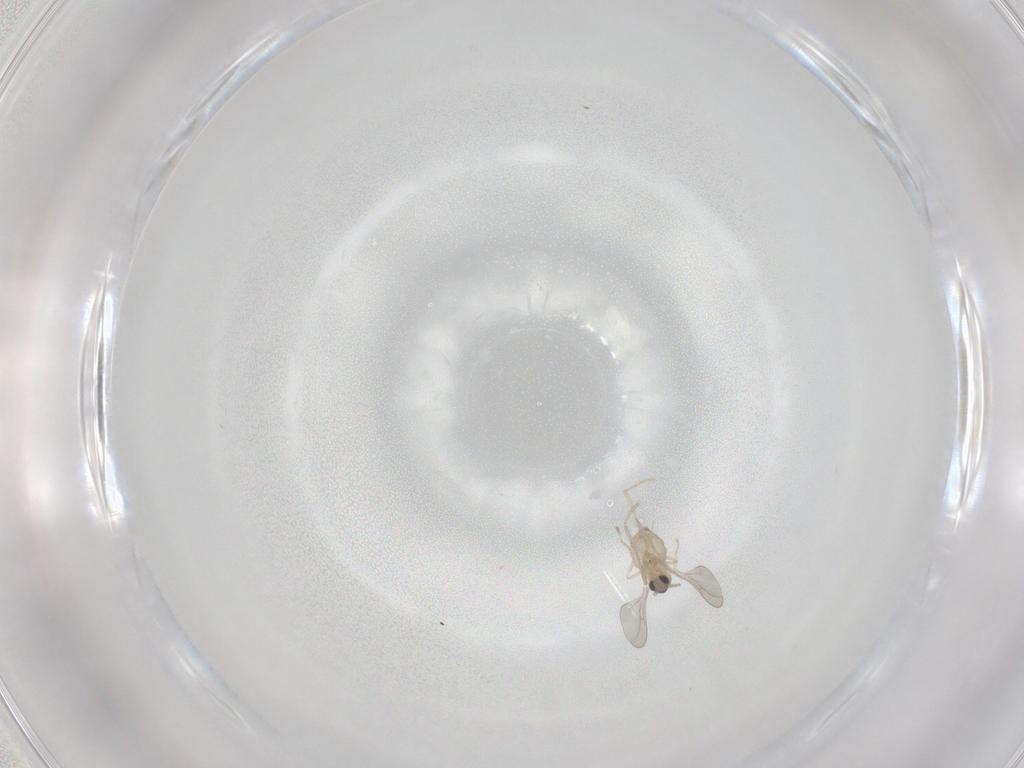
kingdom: Animalia
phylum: Arthropoda
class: Insecta
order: Diptera
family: Cecidomyiidae
